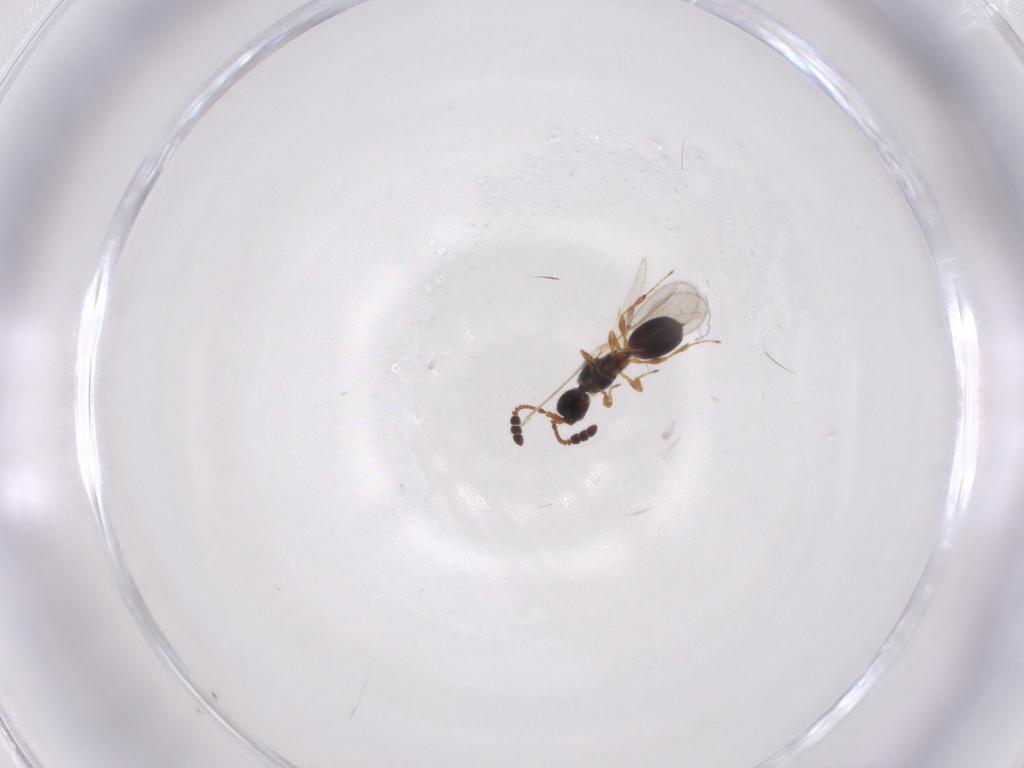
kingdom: Animalia
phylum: Arthropoda
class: Insecta
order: Hymenoptera
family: Diapriidae
